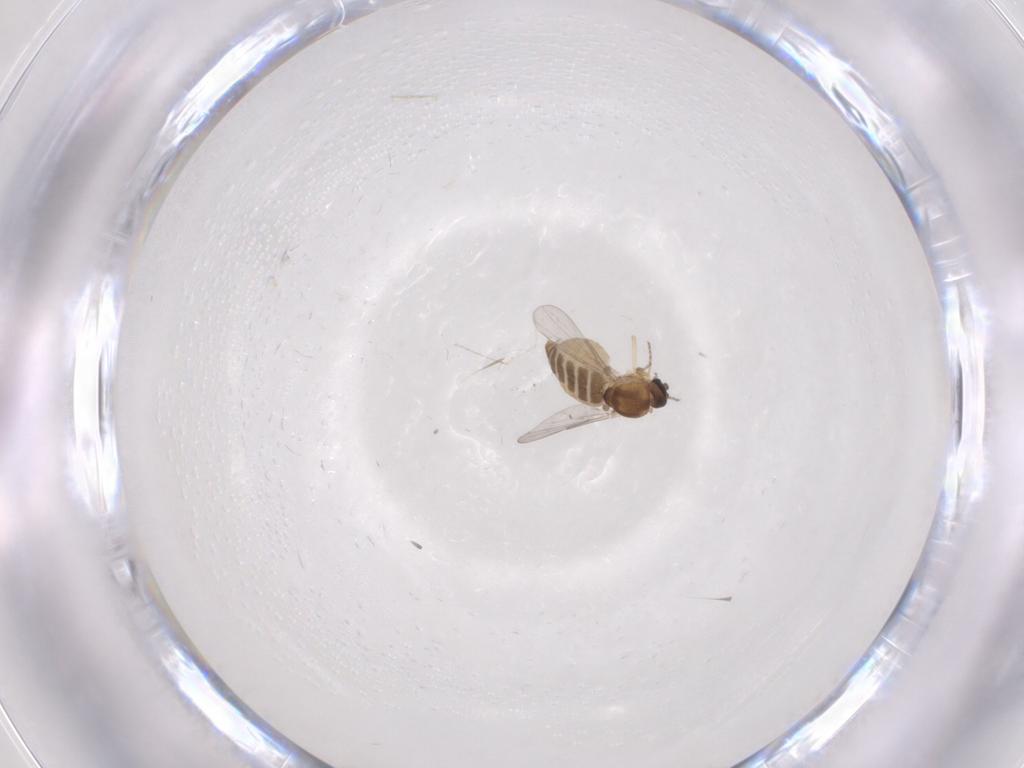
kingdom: Animalia
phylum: Arthropoda
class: Insecta
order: Diptera
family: Ceratopogonidae
